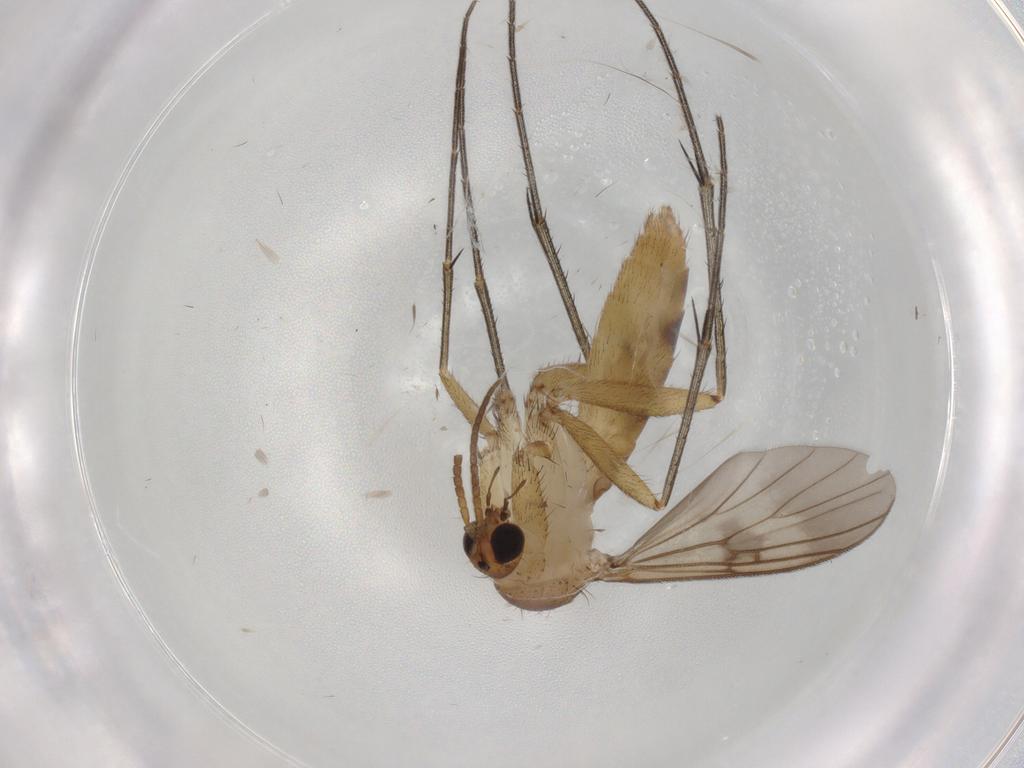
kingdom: Animalia
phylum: Arthropoda
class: Insecta
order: Diptera
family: Mycetophilidae
